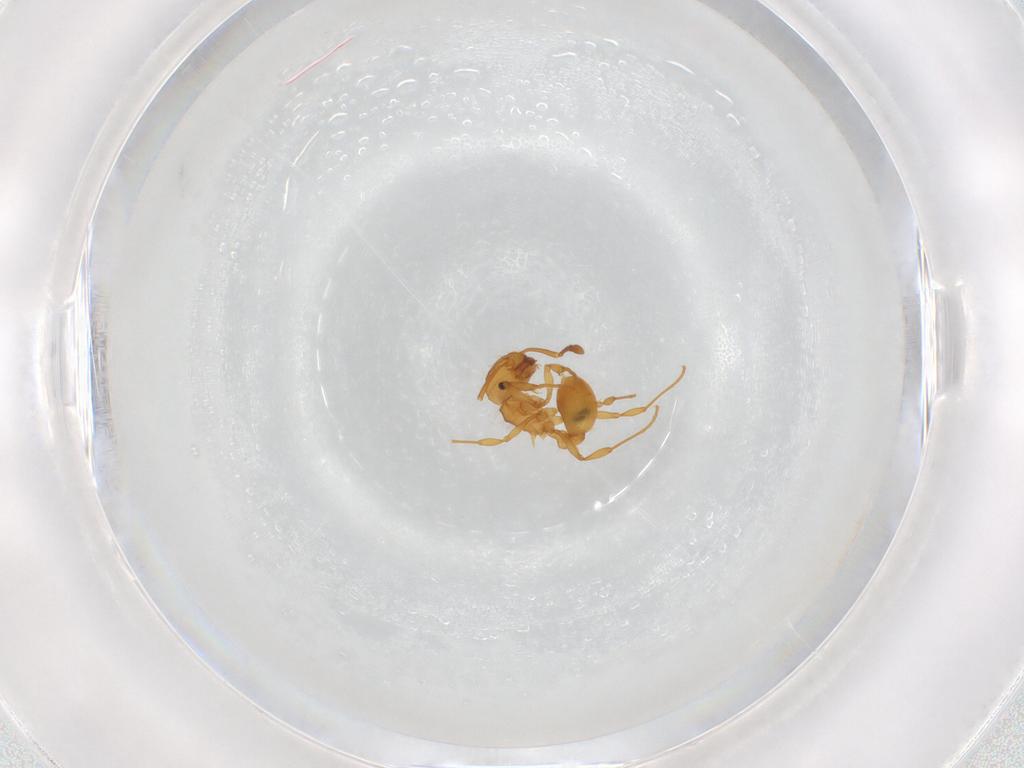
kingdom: Animalia
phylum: Arthropoda
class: Insecta
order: Hymenoptera
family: Formicidae
